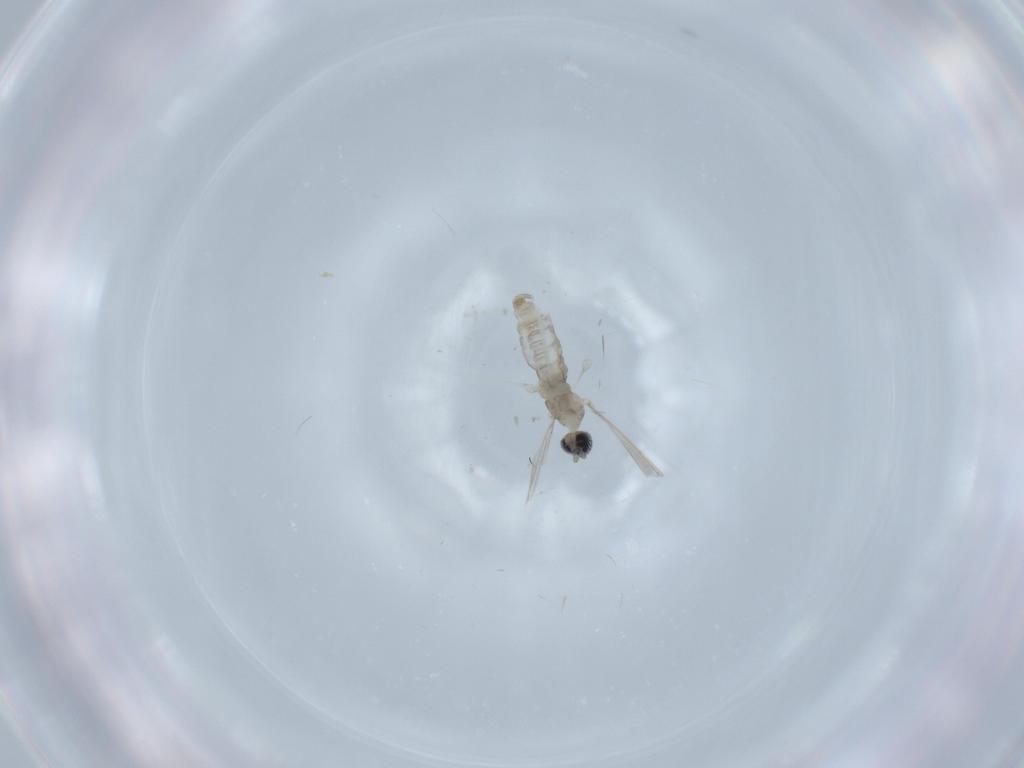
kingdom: Animalia
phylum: Arthropoda
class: Insecta
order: Diptera
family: Cecidomyiidae
